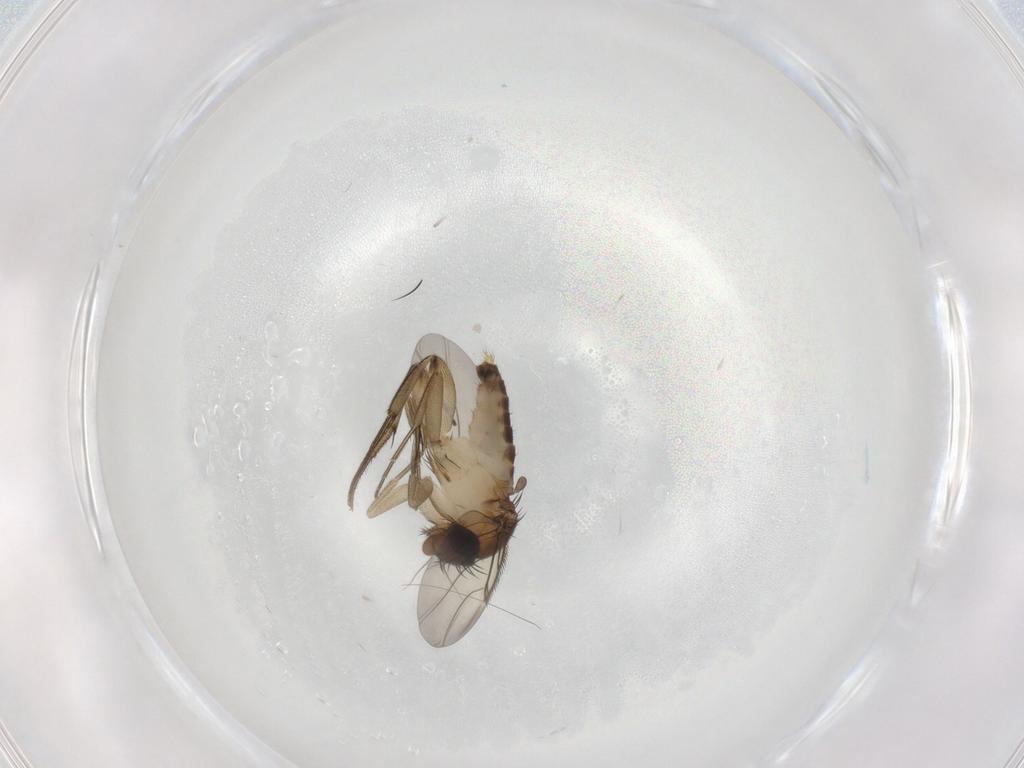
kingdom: Animalia
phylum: Arthropoda
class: Insecta
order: Diptera
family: Phoridae
